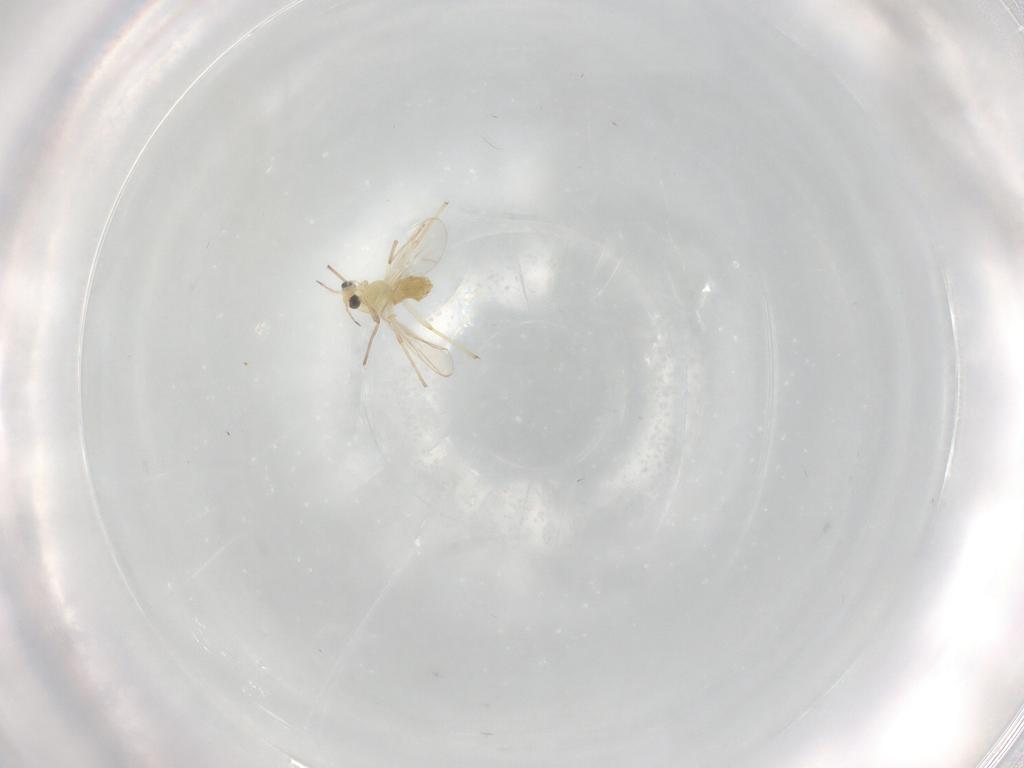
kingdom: Animalia
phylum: Arthropoda
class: Insecta
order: Diptera
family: Chironomidae
